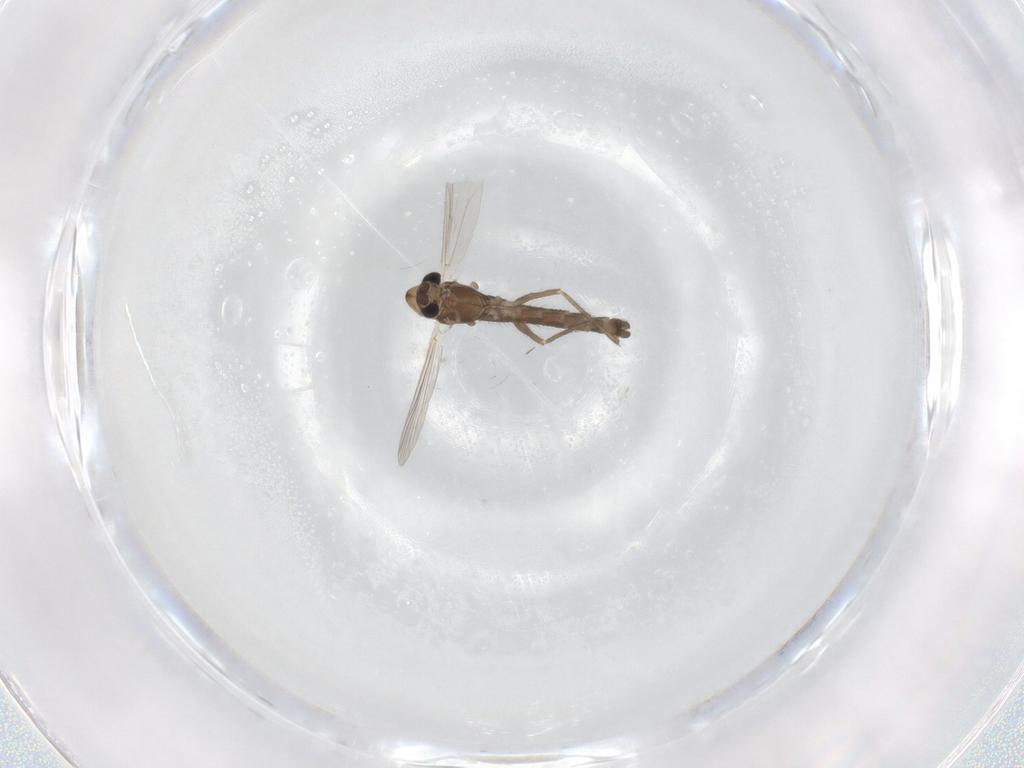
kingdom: Animalia
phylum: Arthropoda
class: Insecta
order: Diptera
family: Chironomidae
